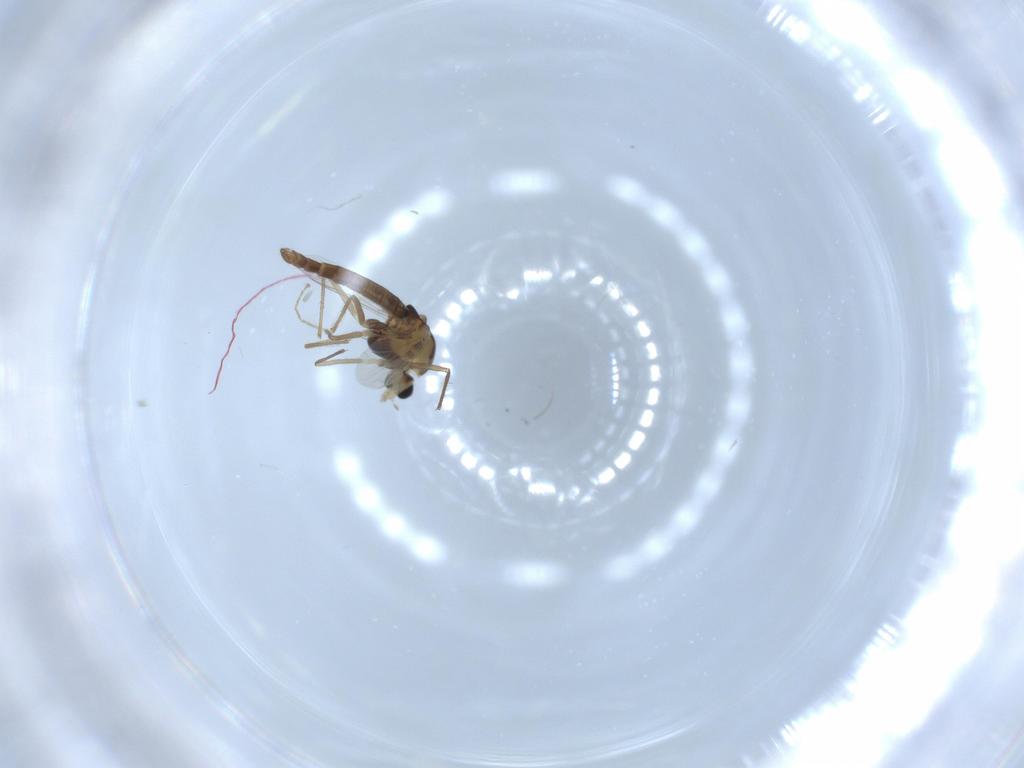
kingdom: Animalia
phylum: Arthropoda
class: Insecta
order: Diptera
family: Chironomidae
